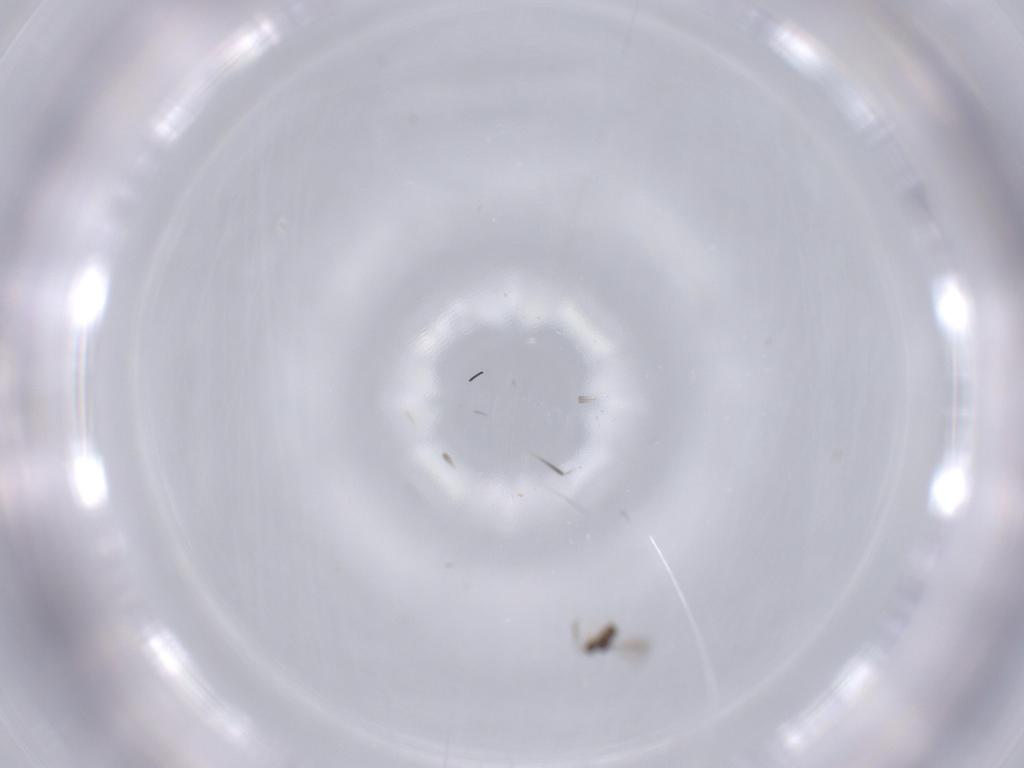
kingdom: Animalia
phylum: Arthropoda
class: Insecta
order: Hymenoptera
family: Mymaridae
